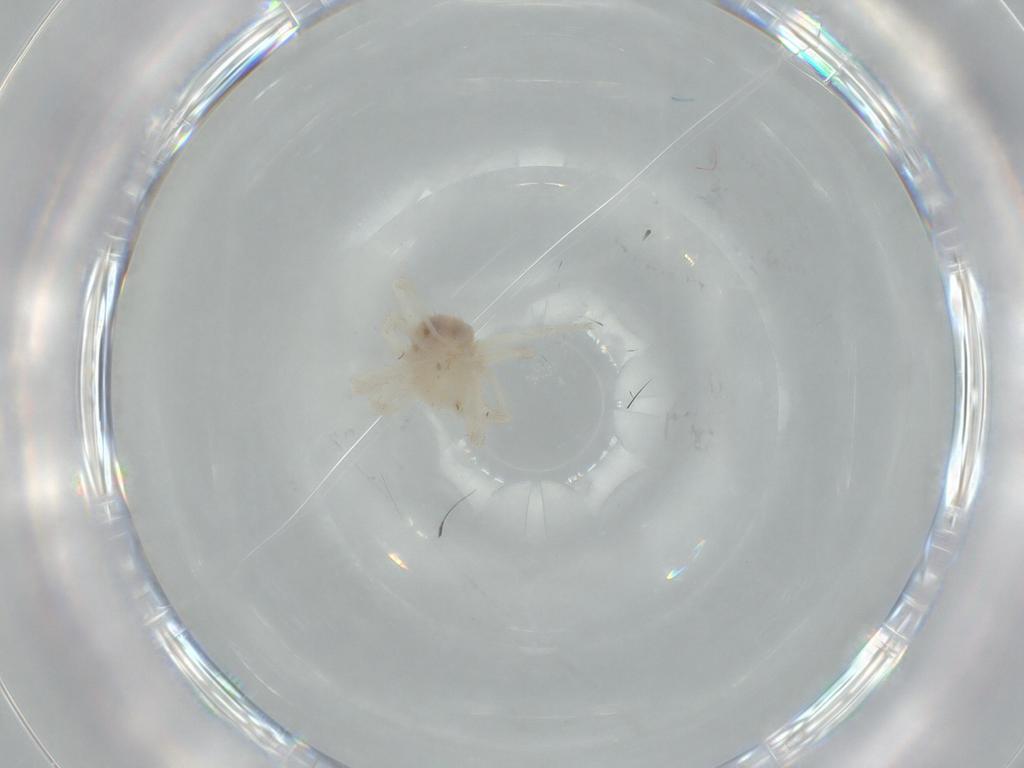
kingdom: Animalia
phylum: Arthropoda
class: Arachnida
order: Trombidiformes
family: Anystidae
